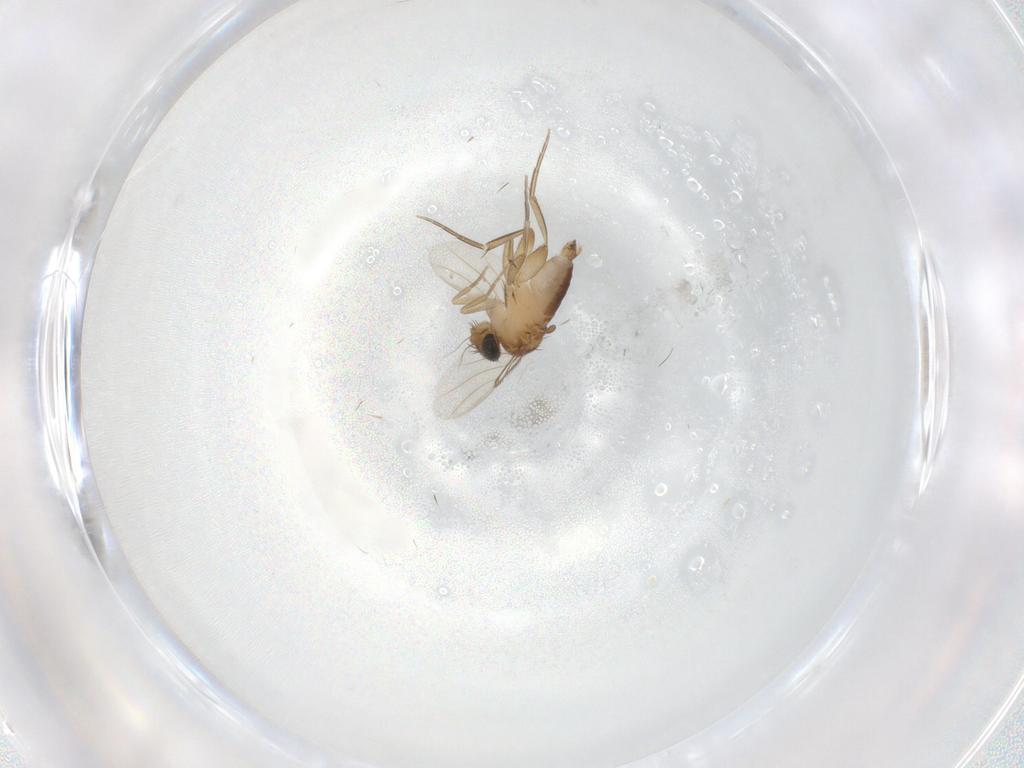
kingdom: Animalia
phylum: Arthropoda
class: Insecta
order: Diptera
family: Phoridae
